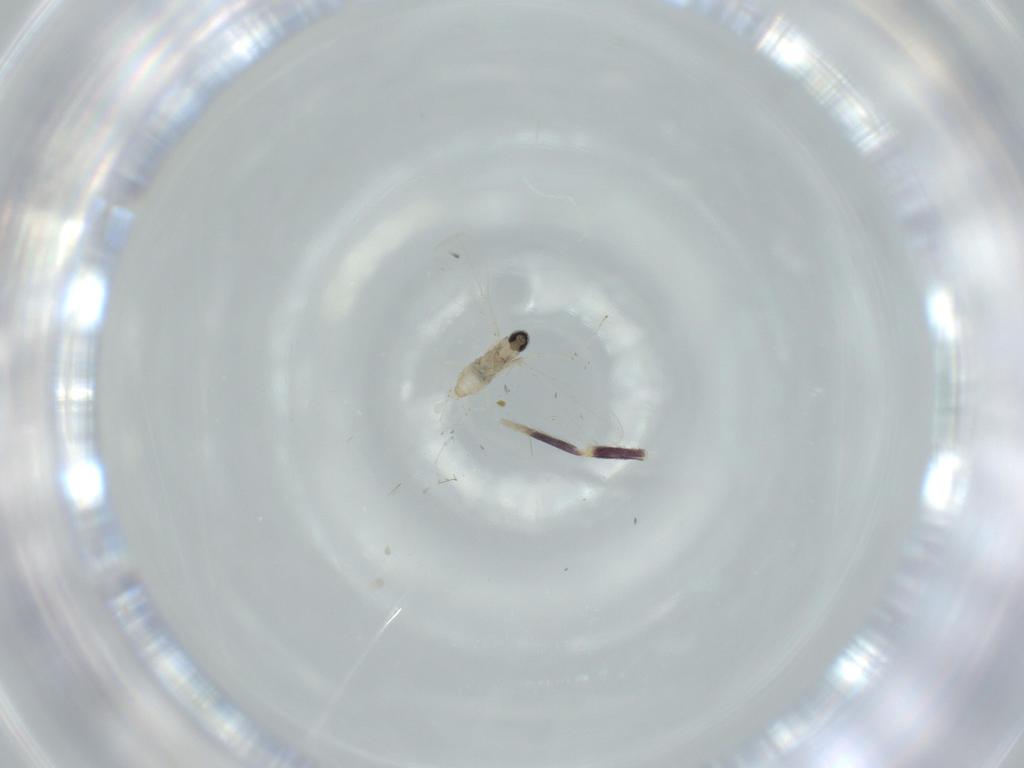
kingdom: Animalia
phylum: Arthropoda
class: Insecta
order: Diptera
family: Cecidomyiidae
